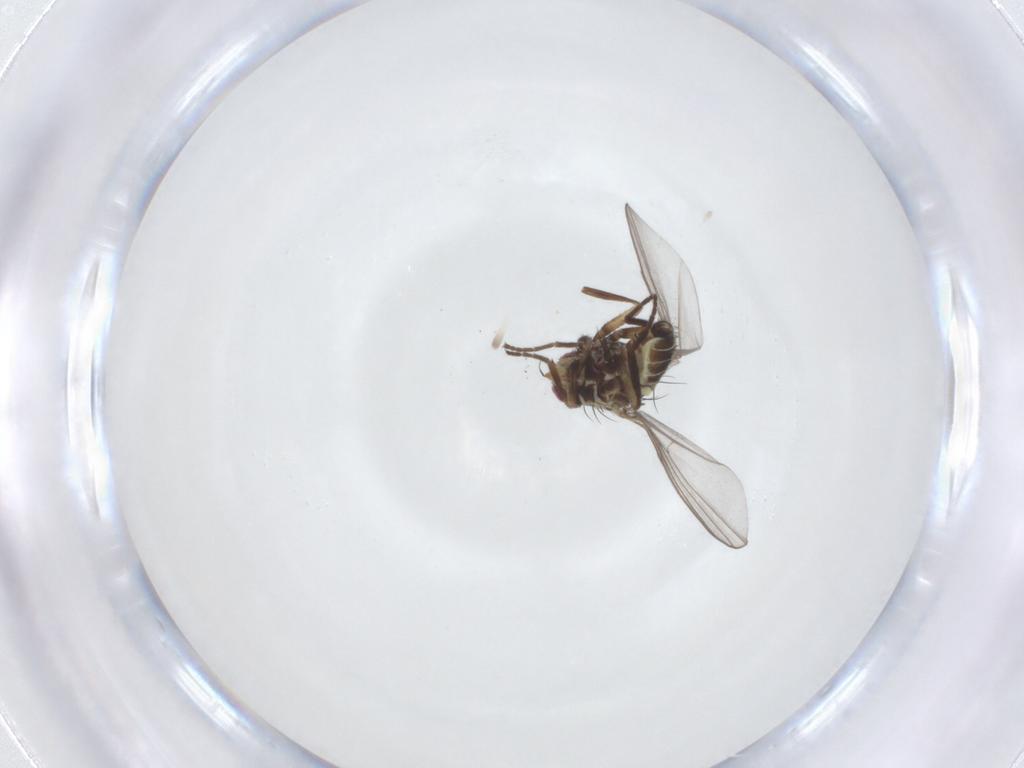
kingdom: Animalia
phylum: Arthropoda
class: Insecta
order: Diptera
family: Agromyzidae
